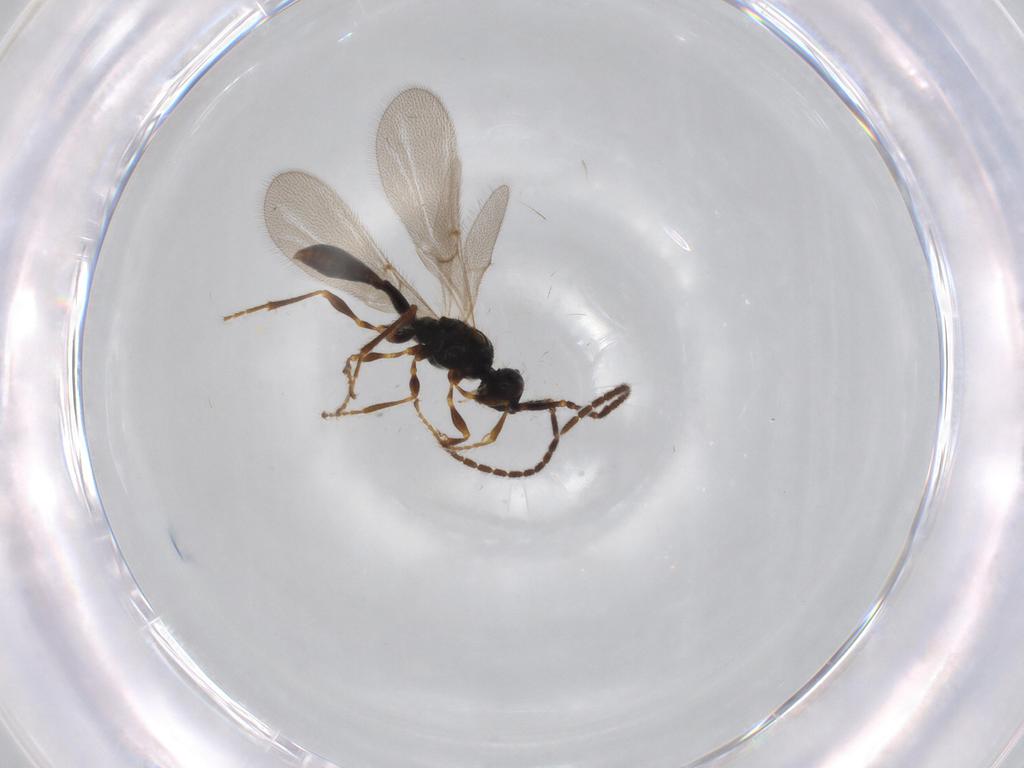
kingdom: Animalia
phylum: Arthropoda
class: Insecta
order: Hymenoptera
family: Diapriidae
